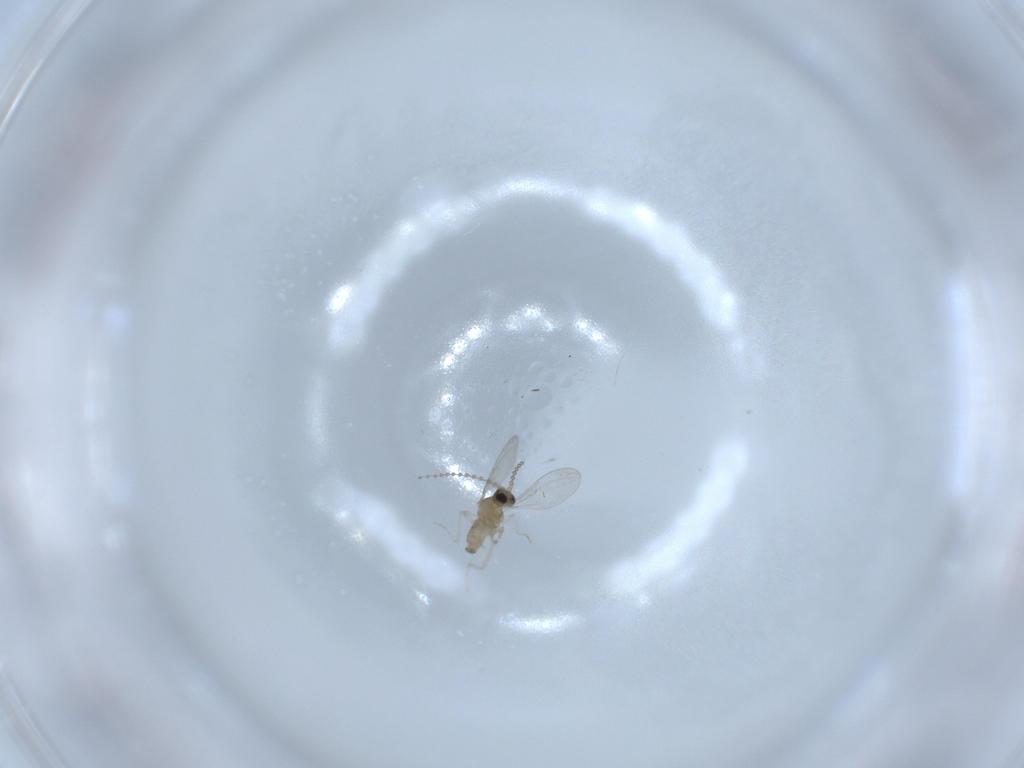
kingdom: Animalia
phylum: Arthropoda
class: Insecta
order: Diptera
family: Cecidomyiidae
